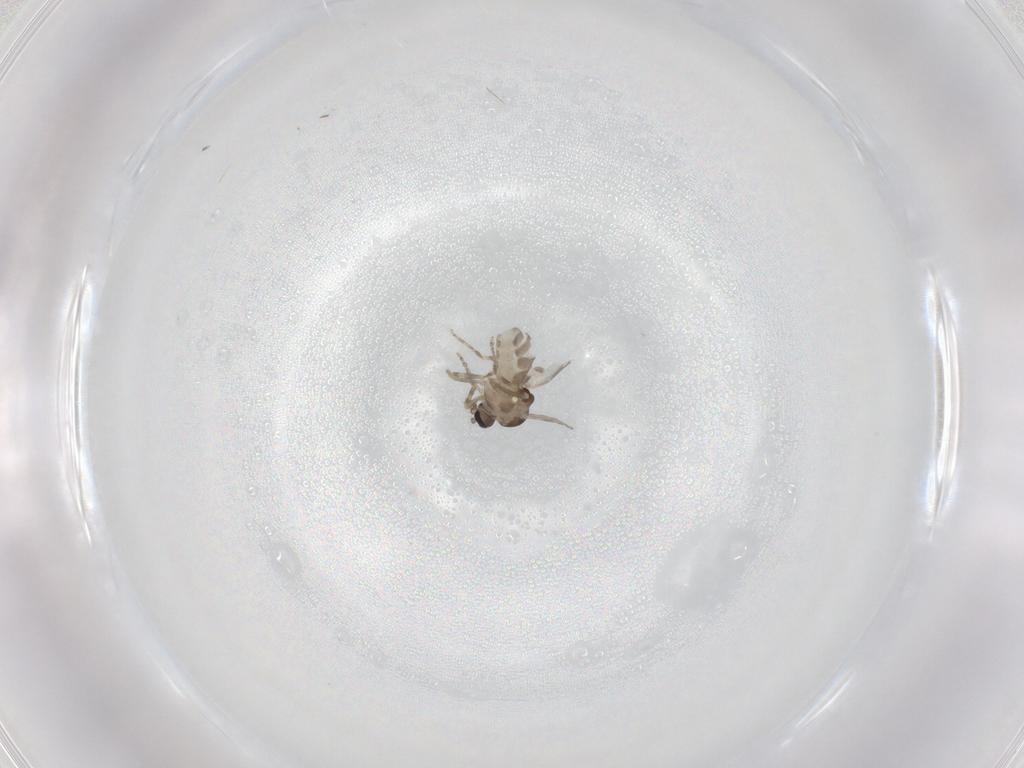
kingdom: Animalia
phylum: Arthropoda
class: Insecta
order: Diptera
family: Ceratopogonidae
